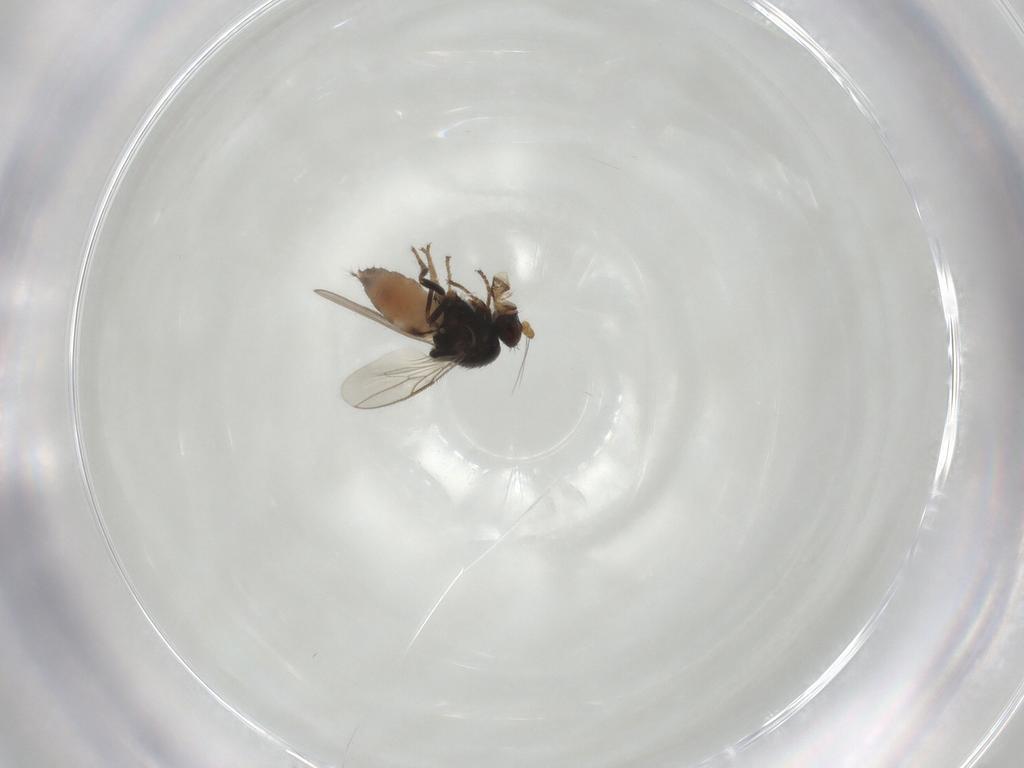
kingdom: Animalia
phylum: Arthropoda
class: Insecta
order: Diptera
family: Sphaeroceridae
